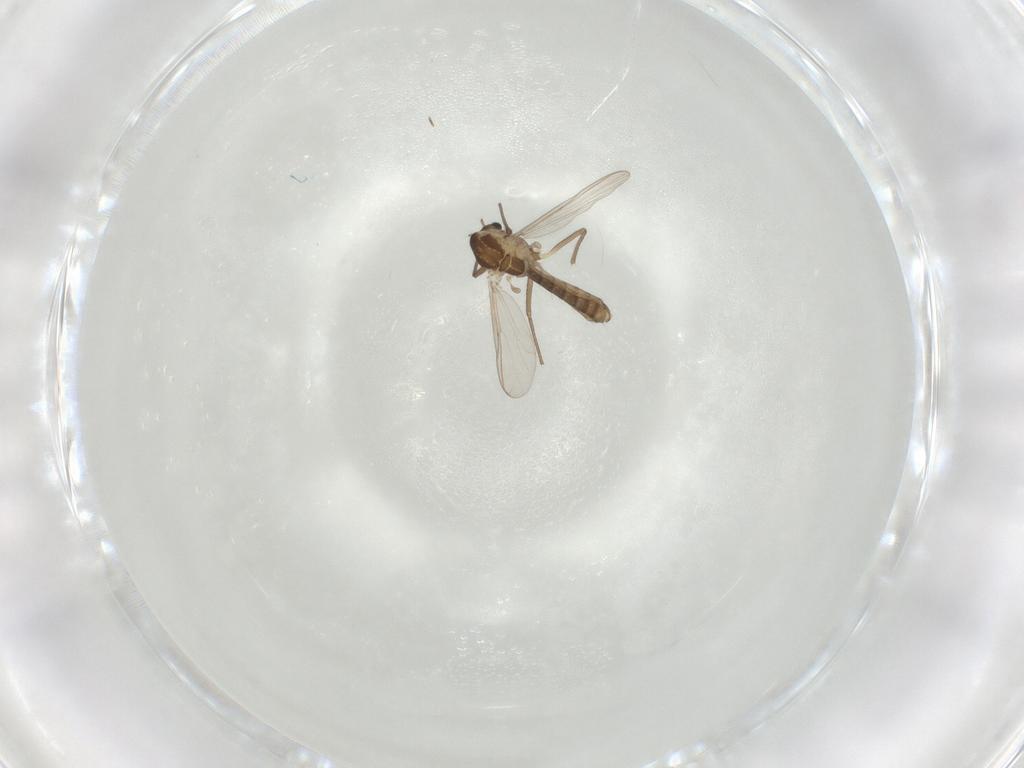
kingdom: Animalia
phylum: Arthropoda
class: Insecta
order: Diptera
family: Chironomidae
